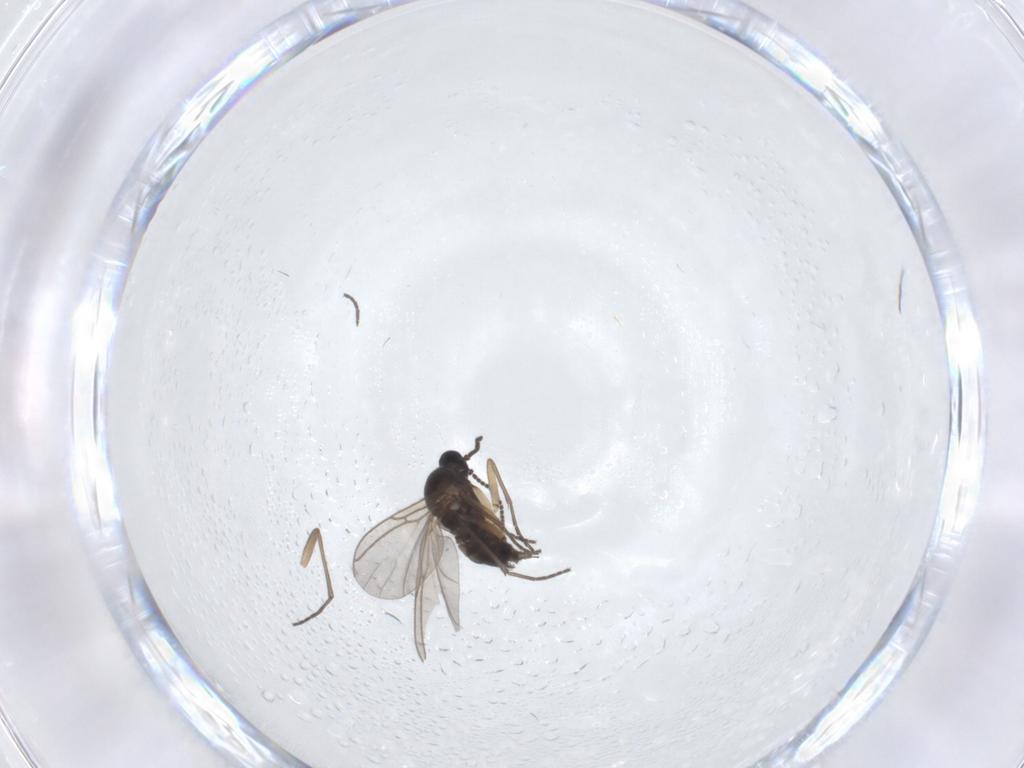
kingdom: Animalia
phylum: Arthropoda
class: Insecta
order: Diptera
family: Sciaridae
